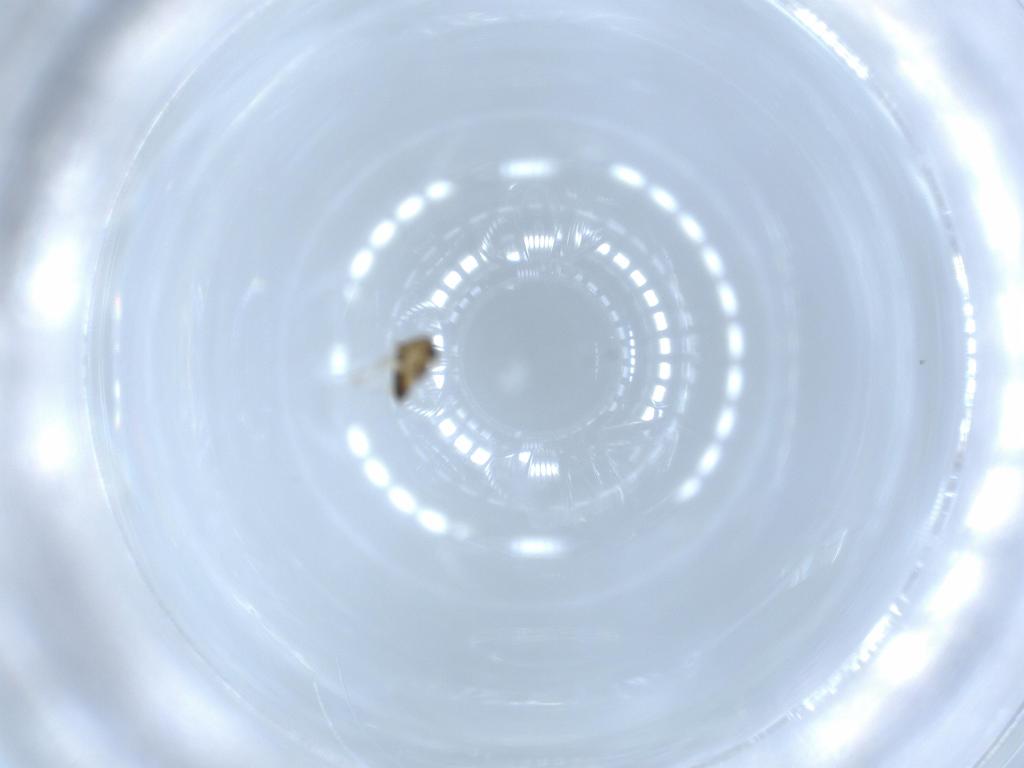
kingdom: Animalia
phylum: Arthropoda
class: Insecta
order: Diptera
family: Chironomidae
